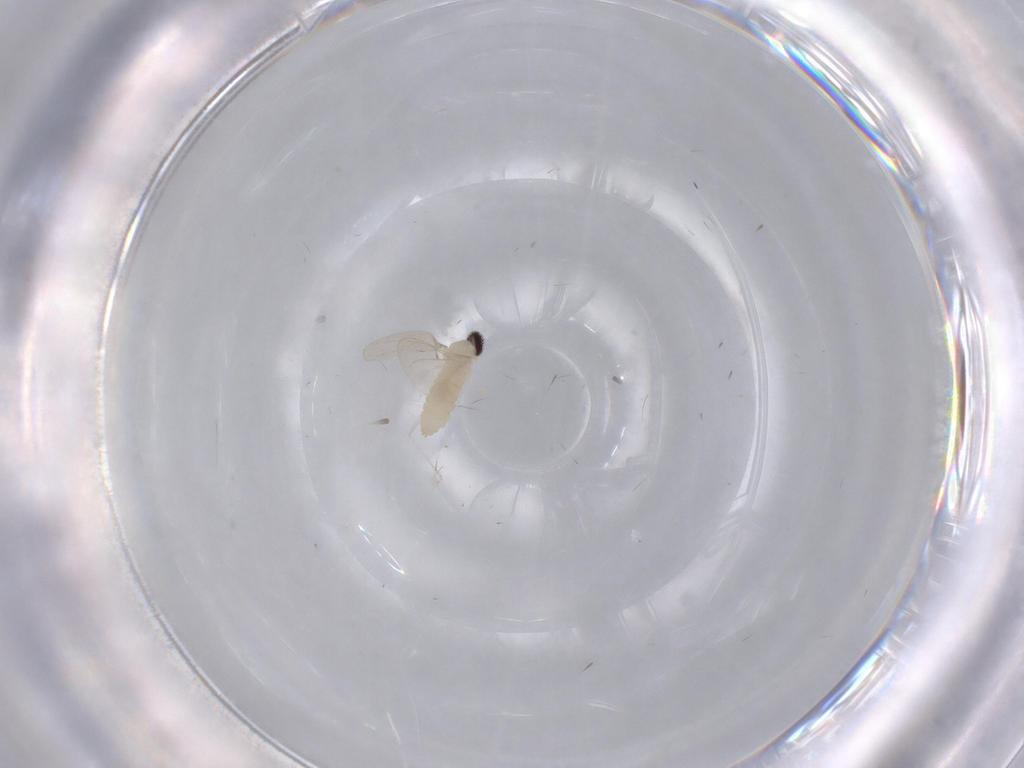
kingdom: Animalia
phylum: Arthropoda
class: Insecta
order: Diptera
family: Cecidomyiidae
